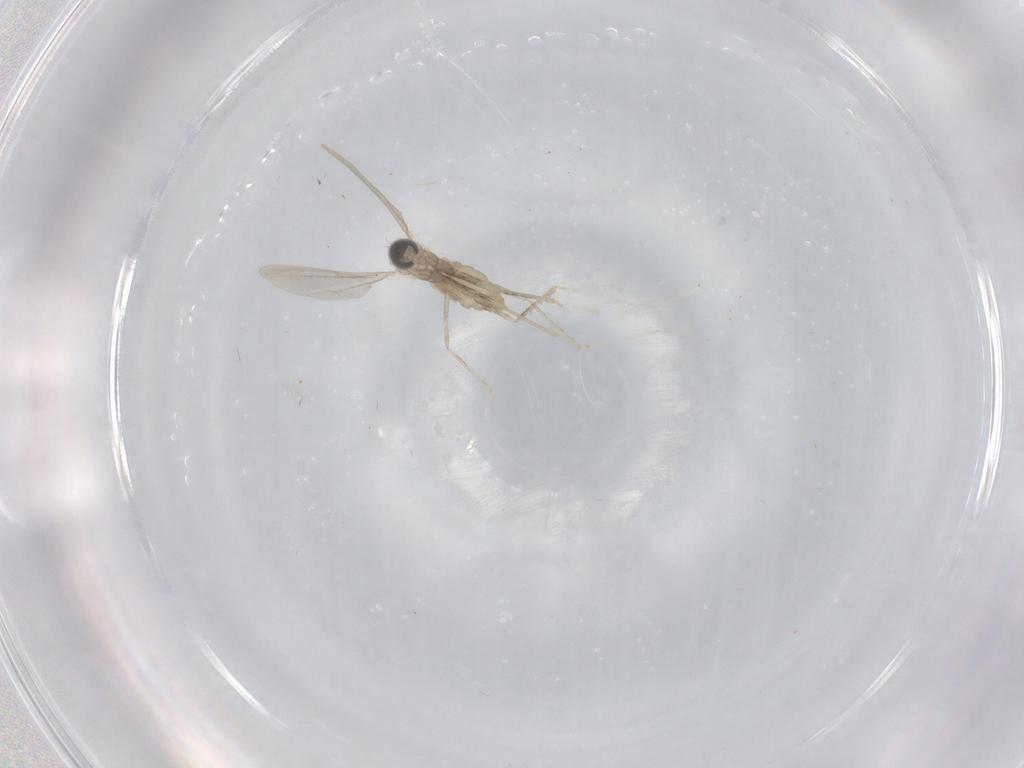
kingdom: Animalia
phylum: Arthropoda
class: Insecta
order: Diptera
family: Cecidomyiidae
